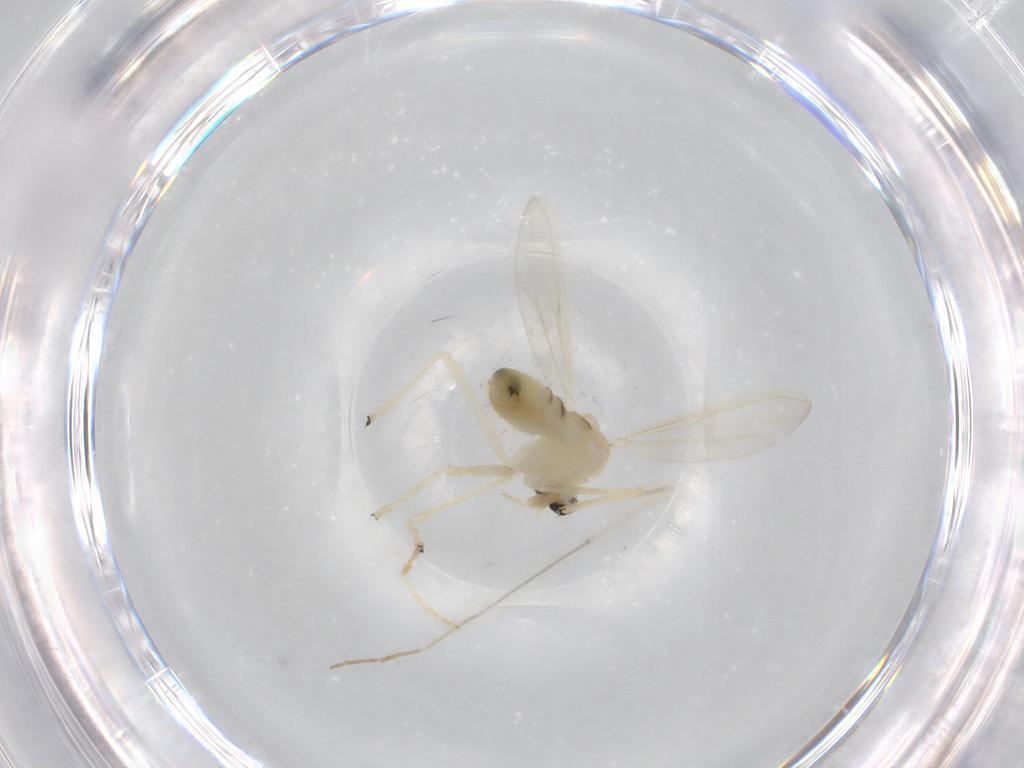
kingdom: Animalia
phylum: Arthropoda
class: Insecta
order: Diptera
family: Chironomidae
